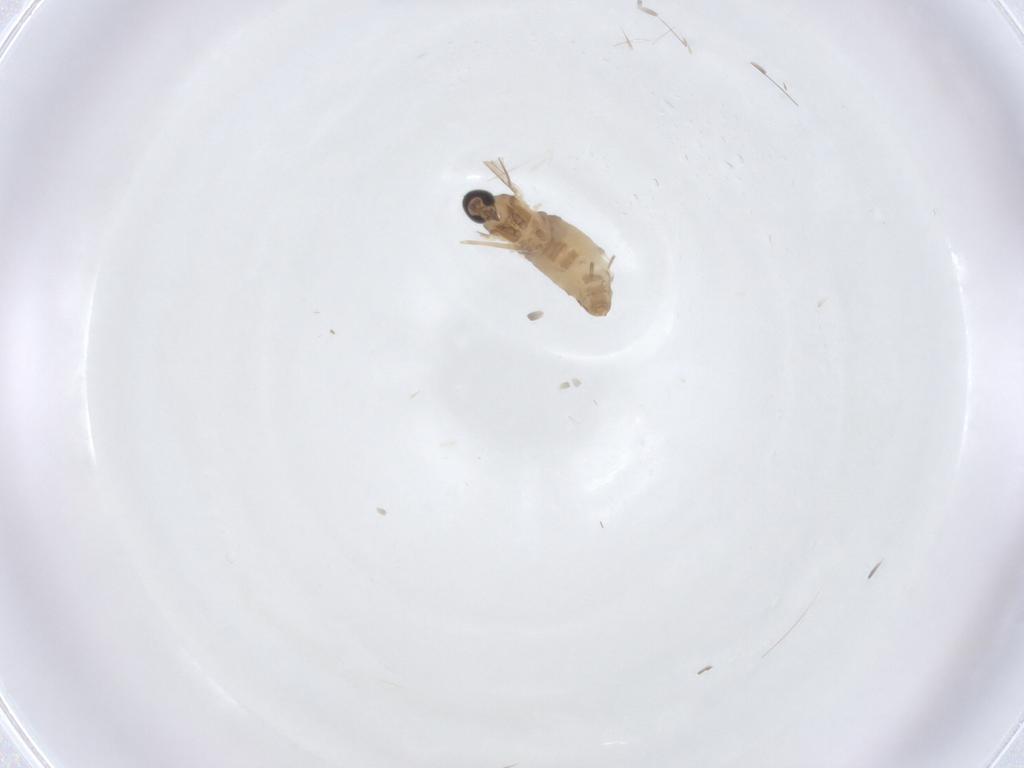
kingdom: Animalia
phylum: Arthropoda
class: Insecta
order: Diptera
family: Cecidomyiidae
